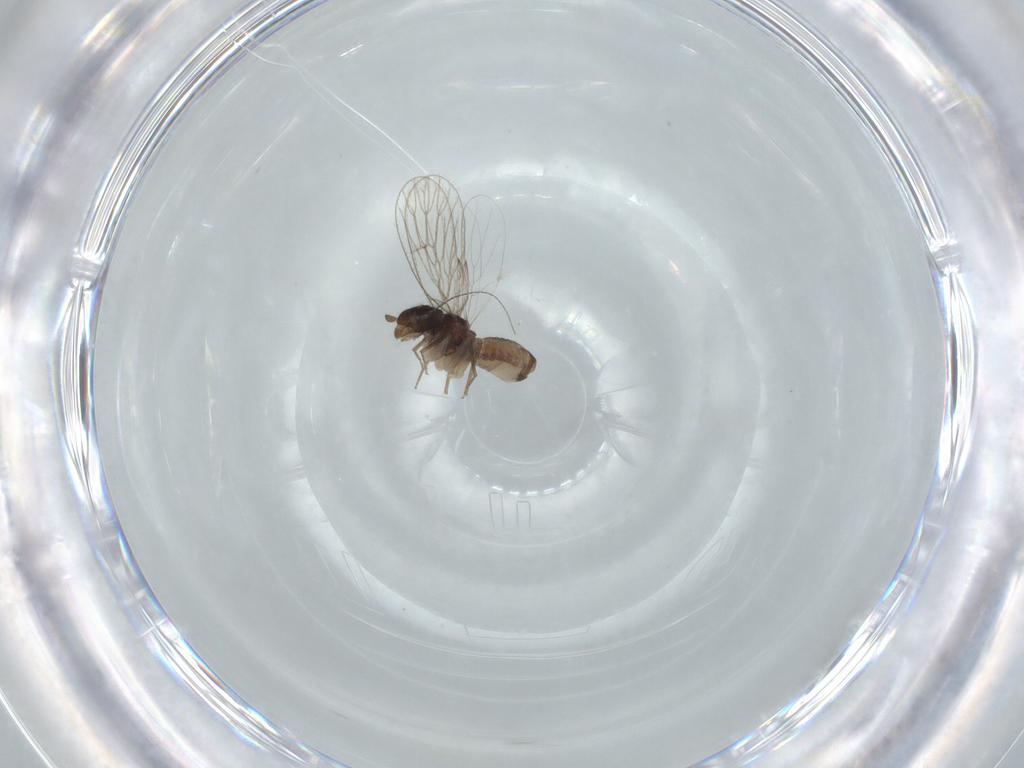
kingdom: Animalia
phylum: Arthropoda
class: Insecta
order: Psocodea
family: Psoquillidae
